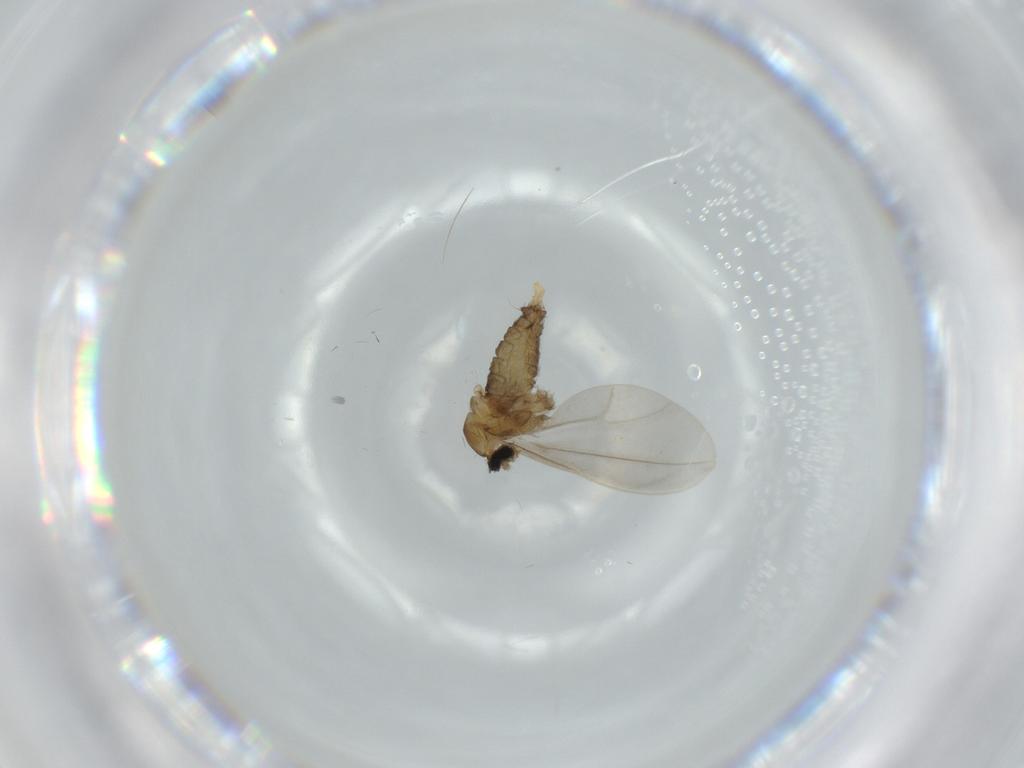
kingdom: Animalia
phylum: Arthropoda
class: Insecta
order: Diptera
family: Cecidomyiidae
